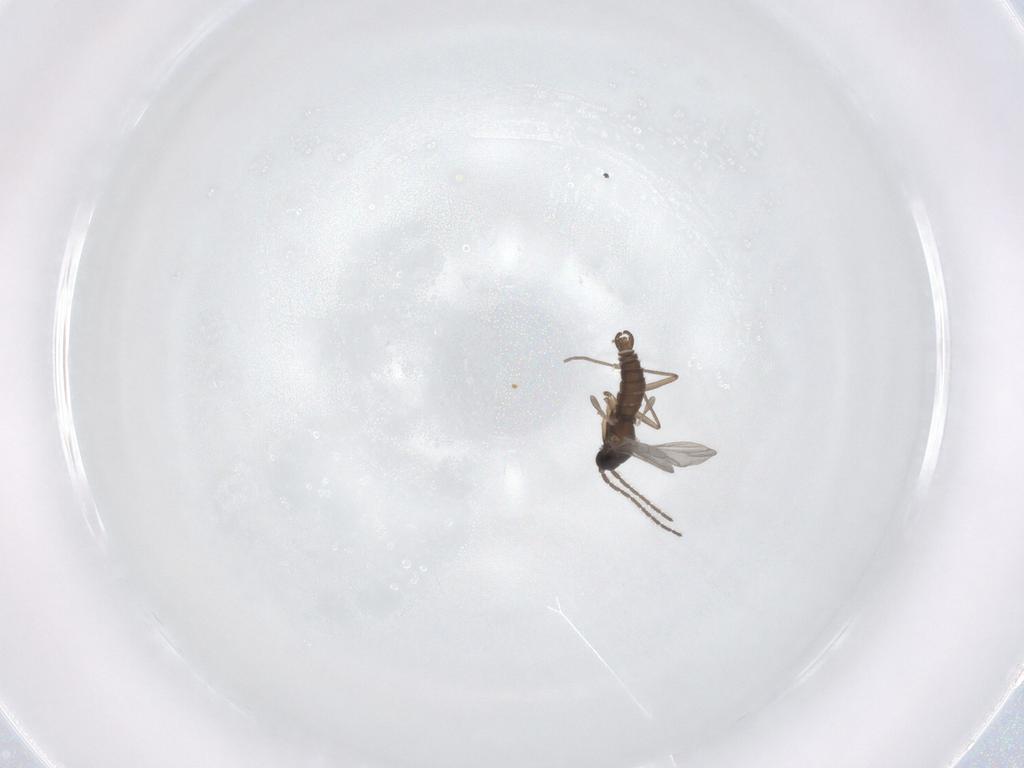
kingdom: Animalia
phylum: Arthropoda
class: Insecta
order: Diptera
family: Sciaridae
